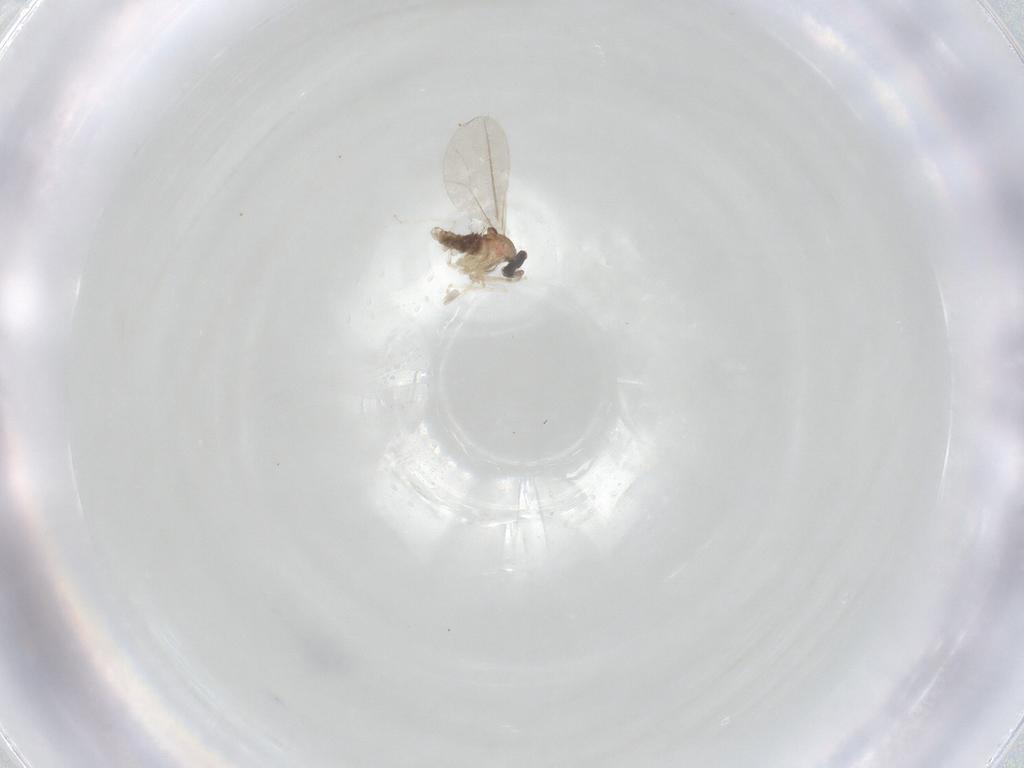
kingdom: Animalia
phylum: Arthropoda
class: Insecta
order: Diptera
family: Cecidomyiidae
